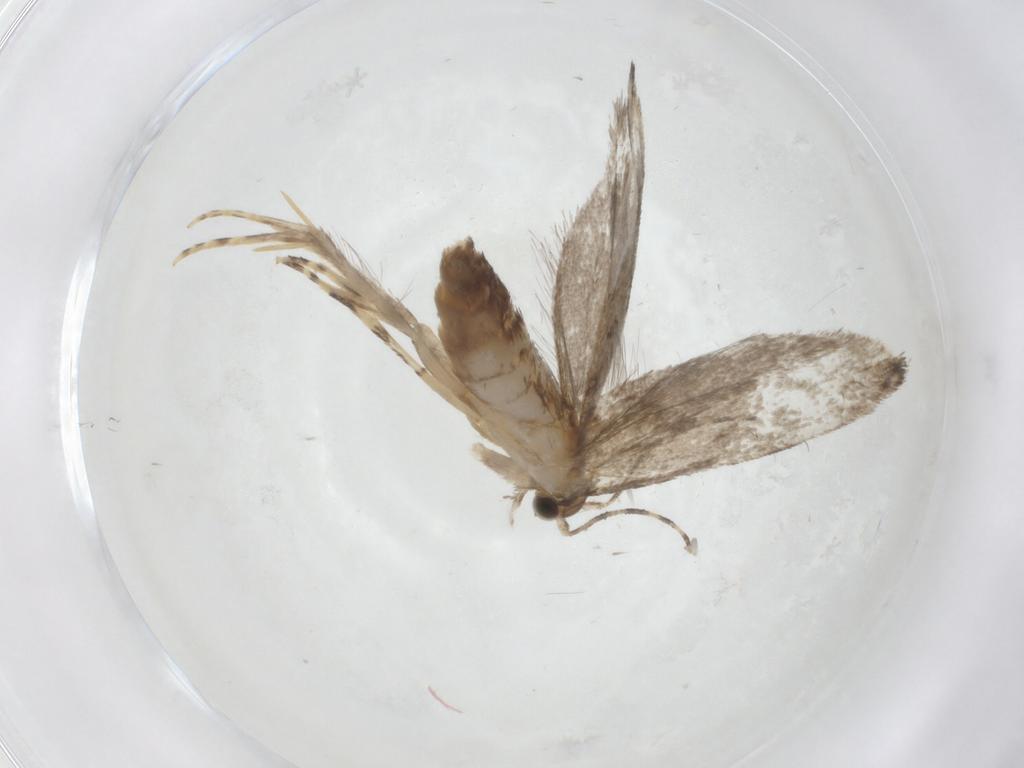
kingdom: Animalia
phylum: Arthropoda
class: Insecta
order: Lepidoptera
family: Tineidae
